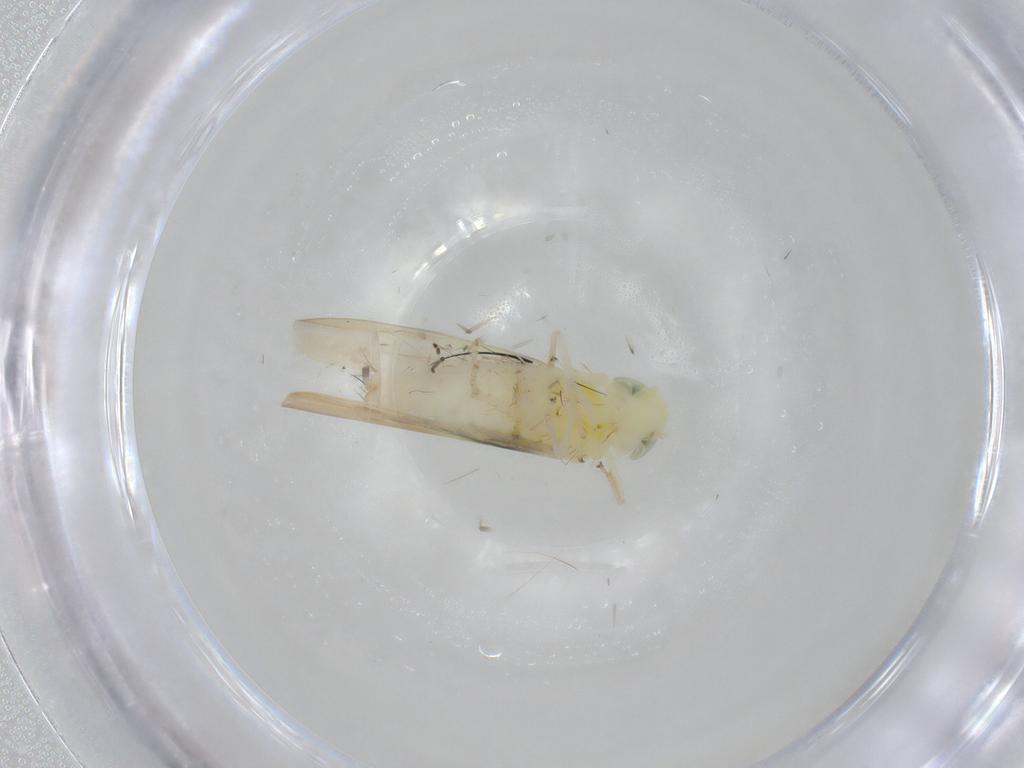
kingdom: Animalia
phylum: Arthropoda
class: Insecta
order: Hemiptera
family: Cicadellidae
